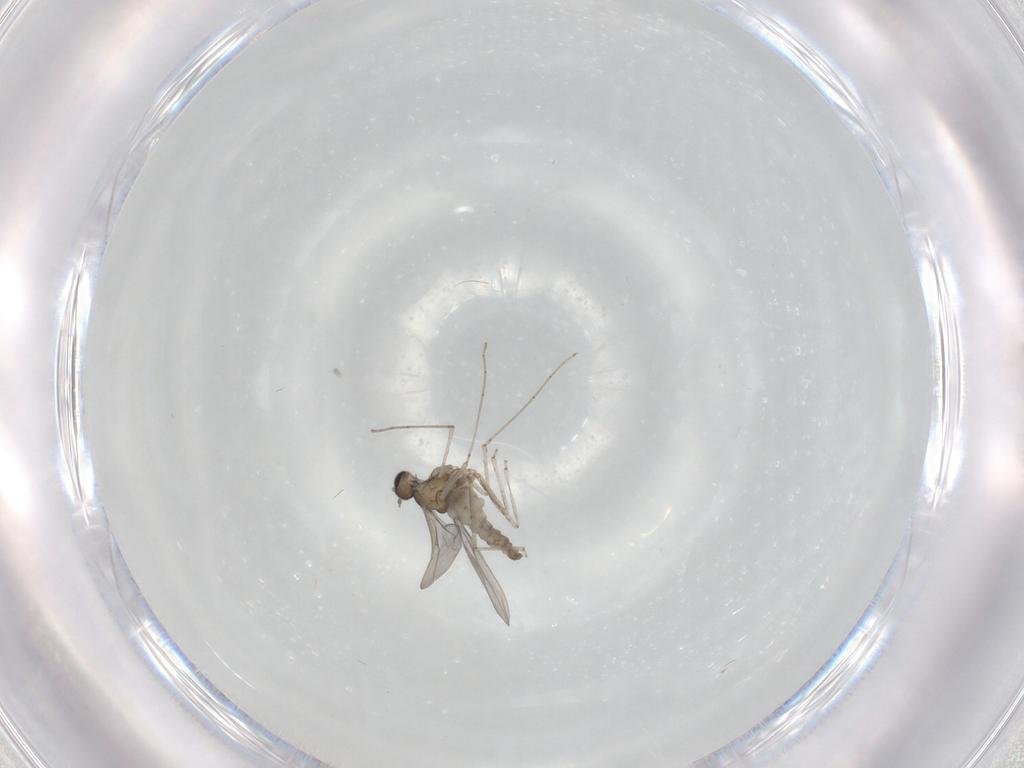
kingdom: Animalia
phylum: Arthropoda
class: Insecta
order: Diptera
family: Cecidomyiidae
